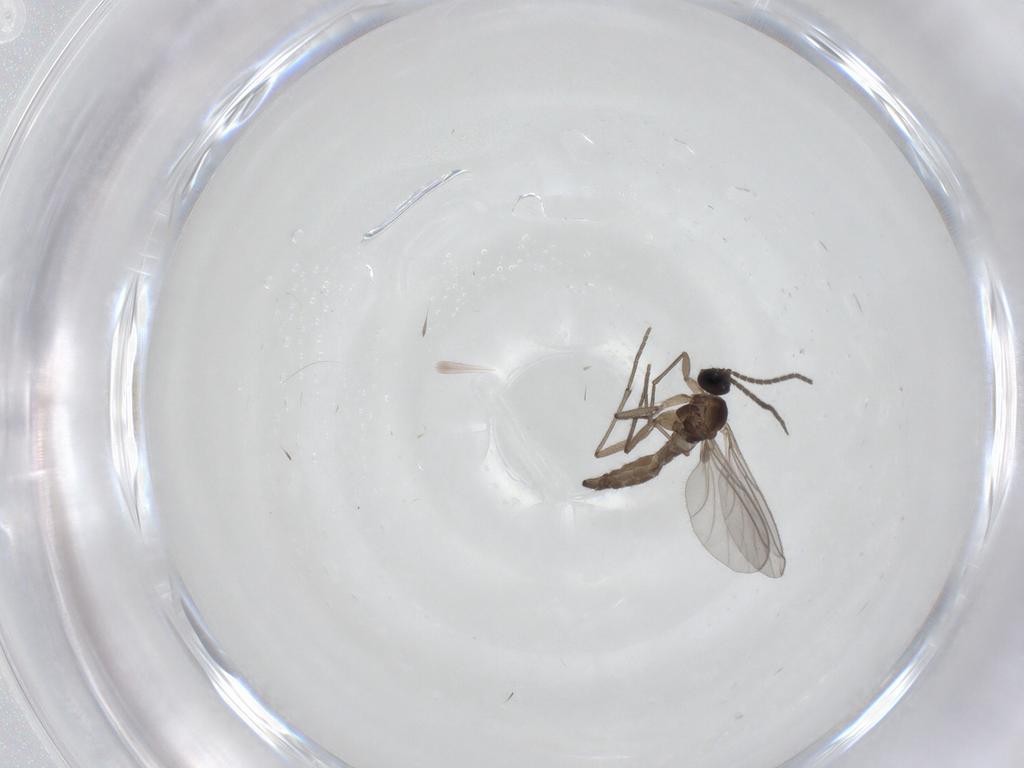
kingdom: Animalia
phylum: Arthropoda
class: Insecta
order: Diptera
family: Sciaridae
